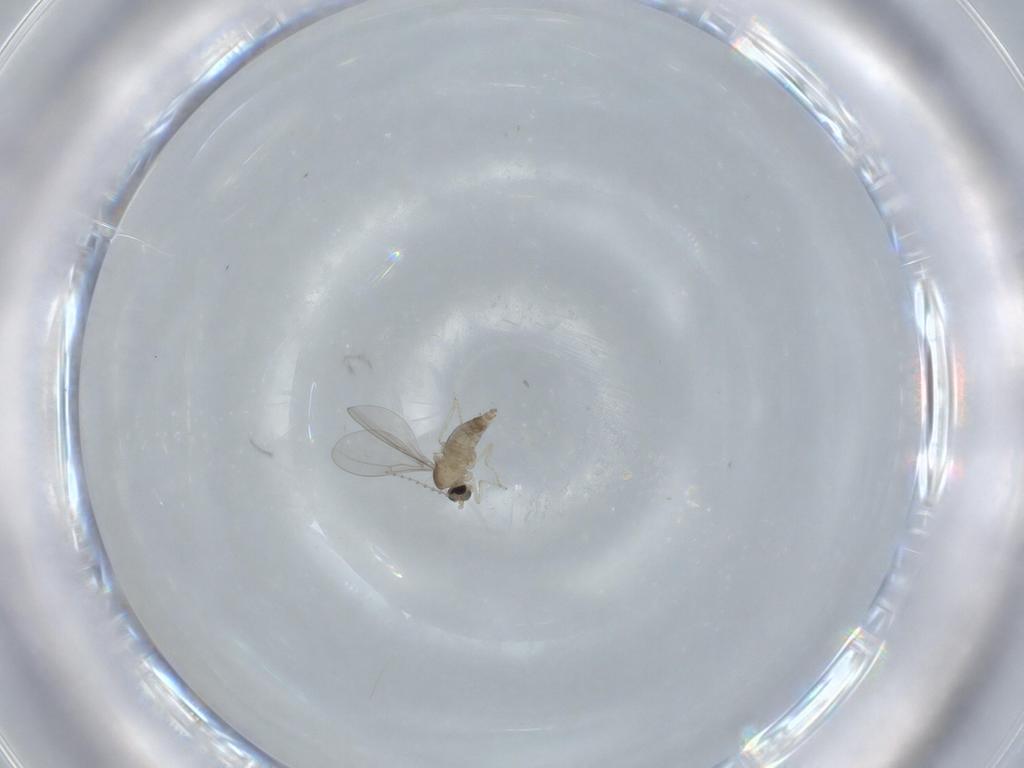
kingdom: Animalia
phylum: Arthropoda
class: Insecta
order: Diptera
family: Cecidomyiidae
